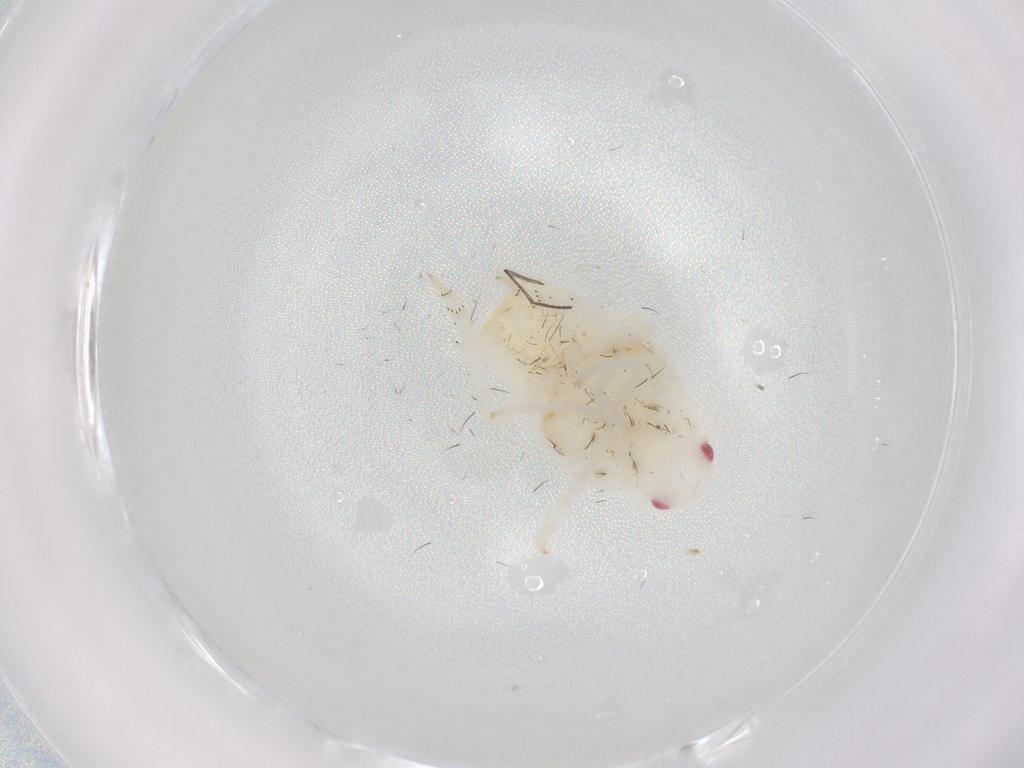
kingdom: Animalia
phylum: Arthropoda
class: Insecta
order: Hemiptera
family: Flatidae
